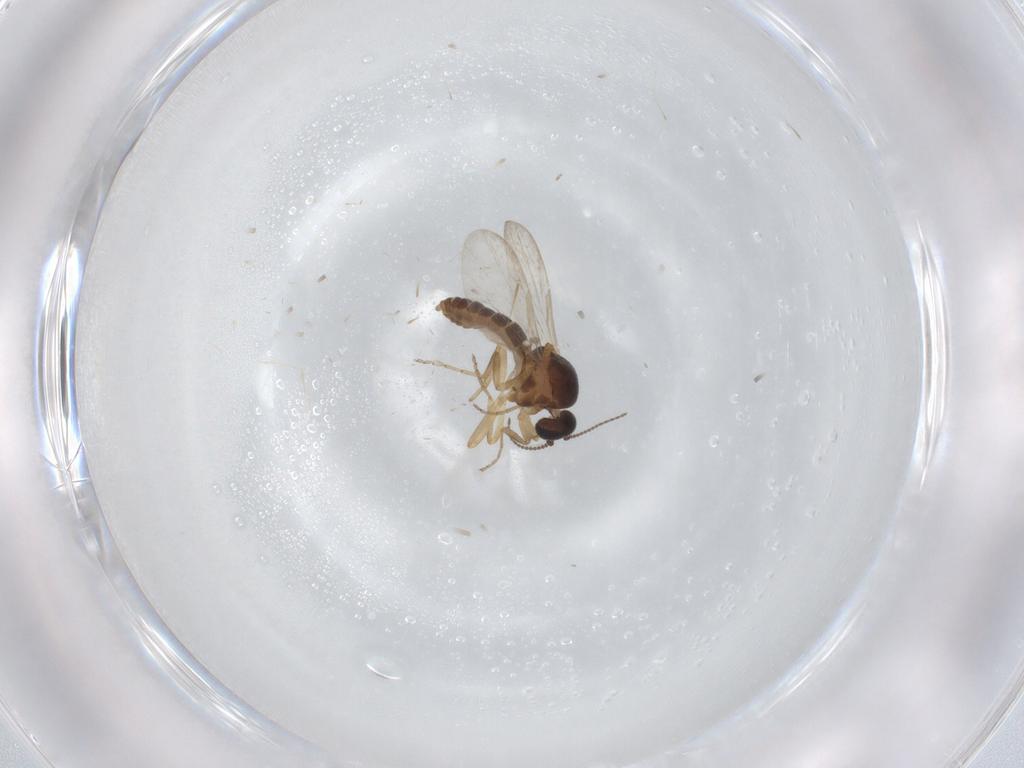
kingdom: Animalia
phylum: Arthropoda
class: Insecta
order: Diptera
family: Ceratopogonidae
